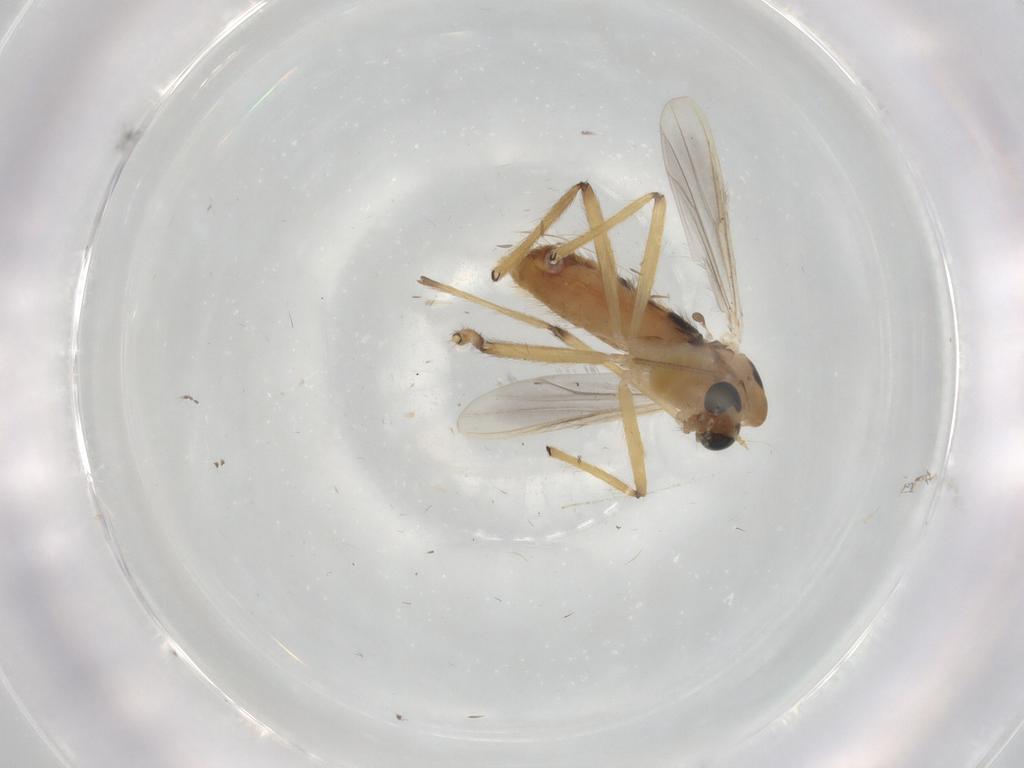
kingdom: Animalia
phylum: Arthropoda
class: Insecta
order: Diptera
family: Chironomidae
